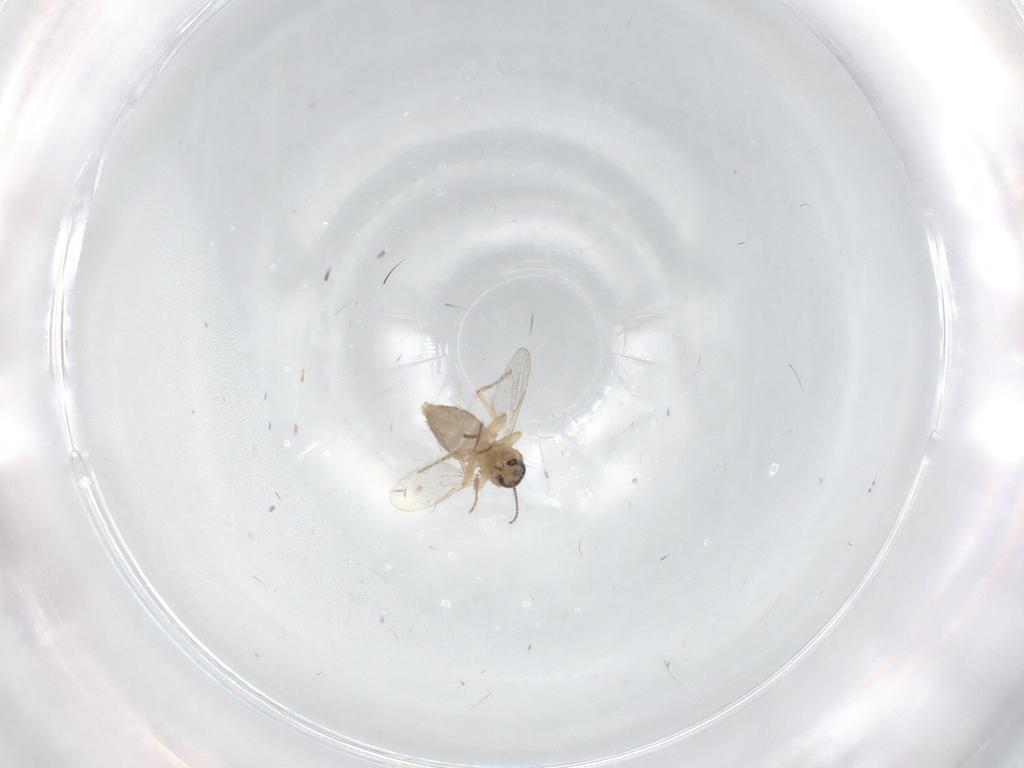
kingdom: Animalia
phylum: Arthropoda
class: Insecta
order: Diptera
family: Ceratopogonidae
